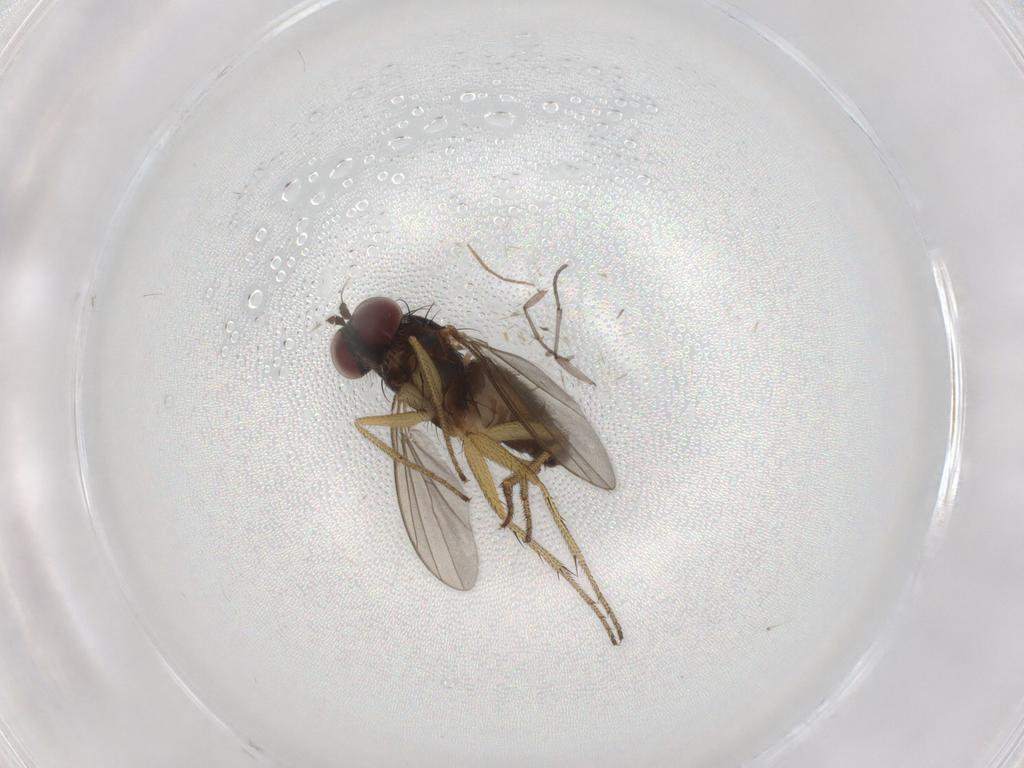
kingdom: Animalia
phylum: Arthropoda
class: Insecta
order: Diptera
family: Sciaridae
